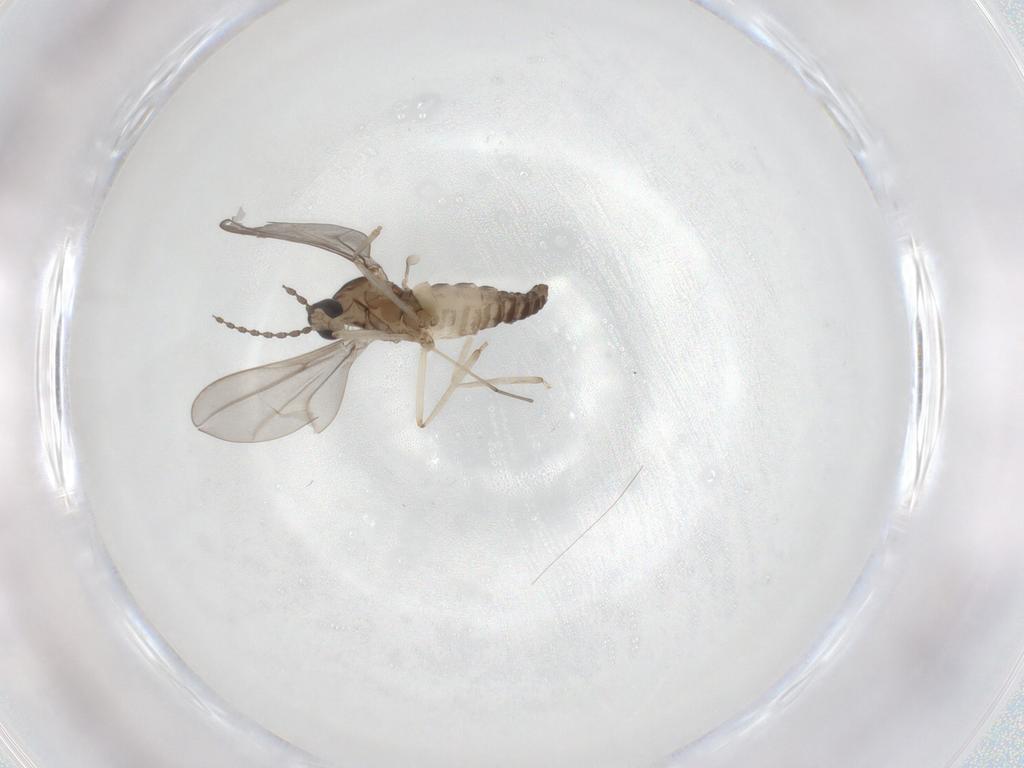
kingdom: Animalia
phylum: Arthropoda
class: Insecta
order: Diptera
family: Cecidomyiidae
